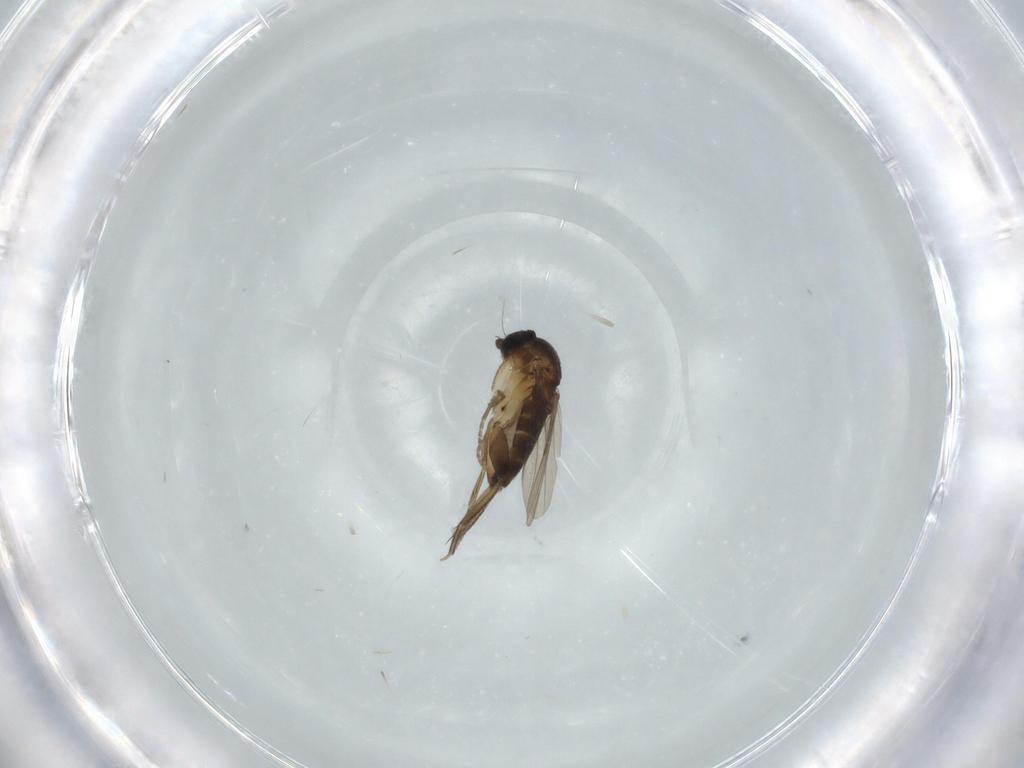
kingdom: Animalia
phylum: Arthropoda
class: Insecta
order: Diptera
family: Phoridae
